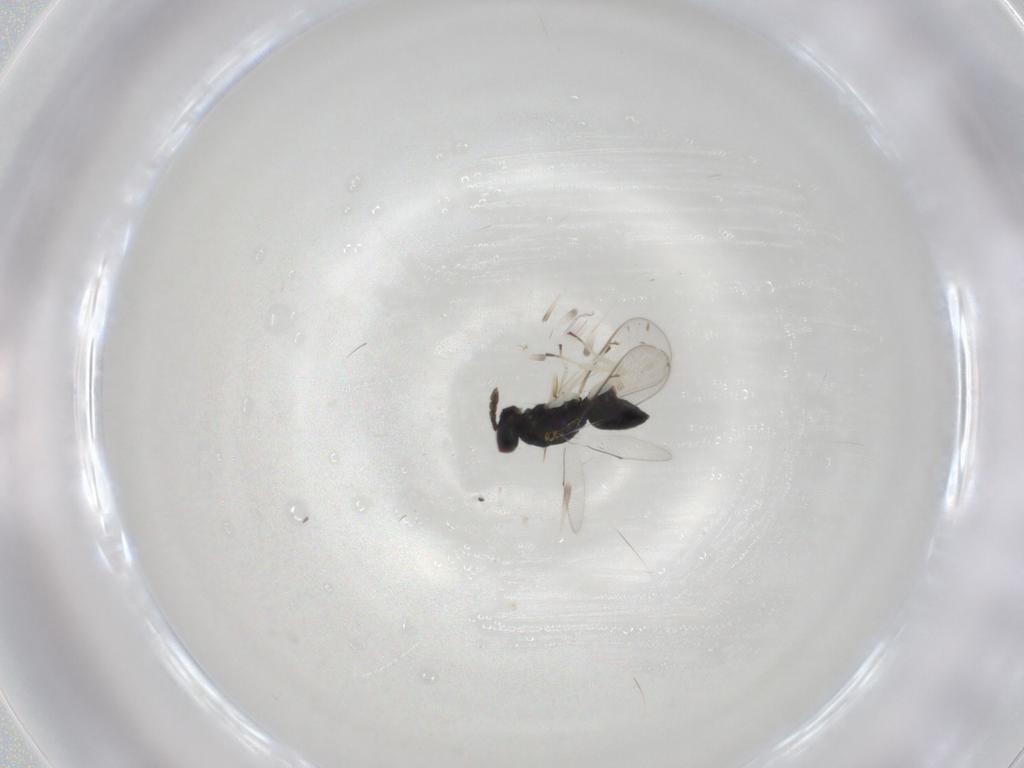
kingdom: Animalia
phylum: Arthropoda
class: Insecta
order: Hymenoptera
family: Eulophidae
